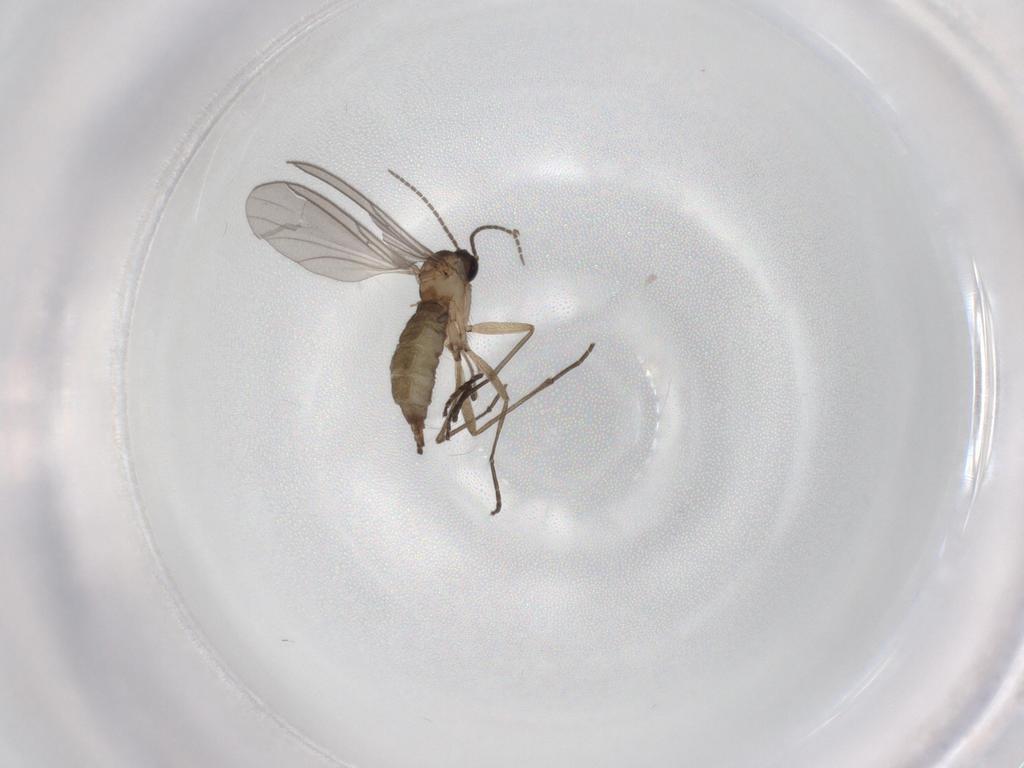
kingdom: Animalia
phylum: Arthropoda
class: Insecta
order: Diptera
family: Sciaridae
